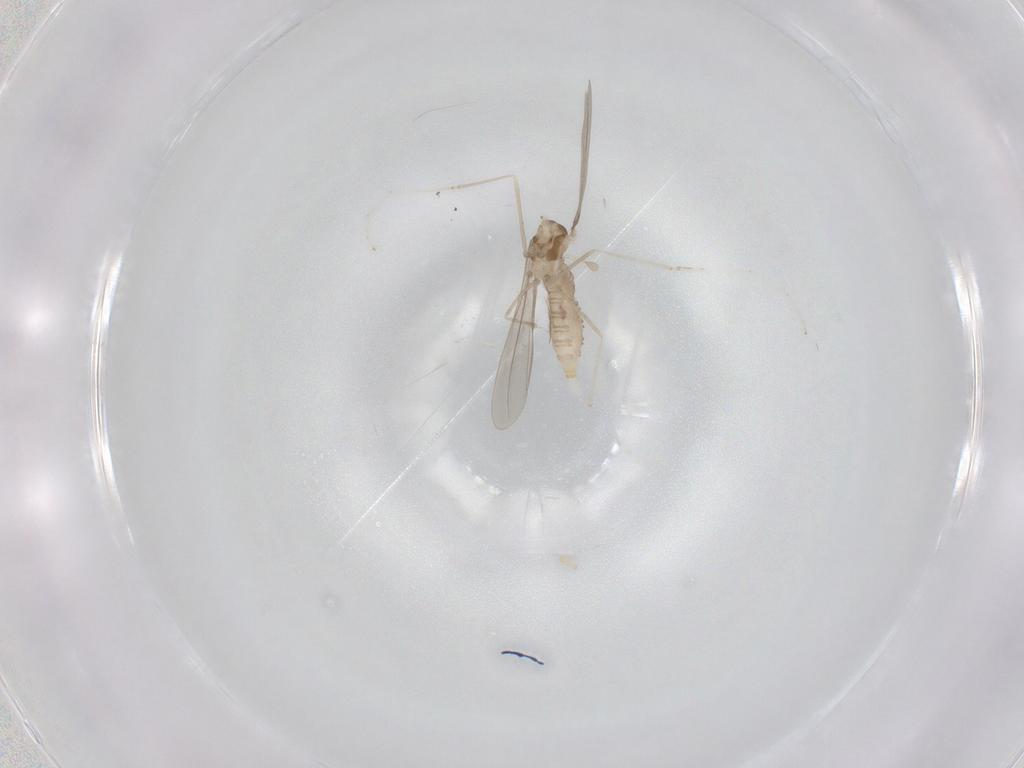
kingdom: Animalia
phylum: Arthropoda
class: Insecta
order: Diptera
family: Cecidomyiidae
